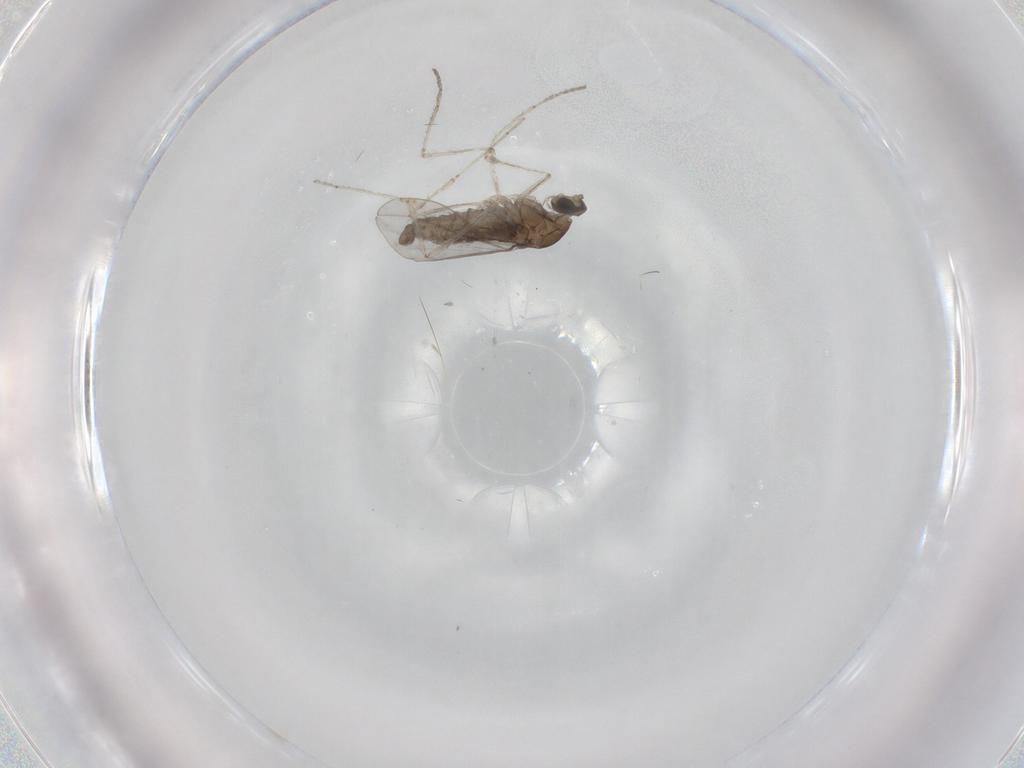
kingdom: Animalia
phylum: Arthropoda
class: Insecta
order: Diptera
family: Cecidomyiidae
